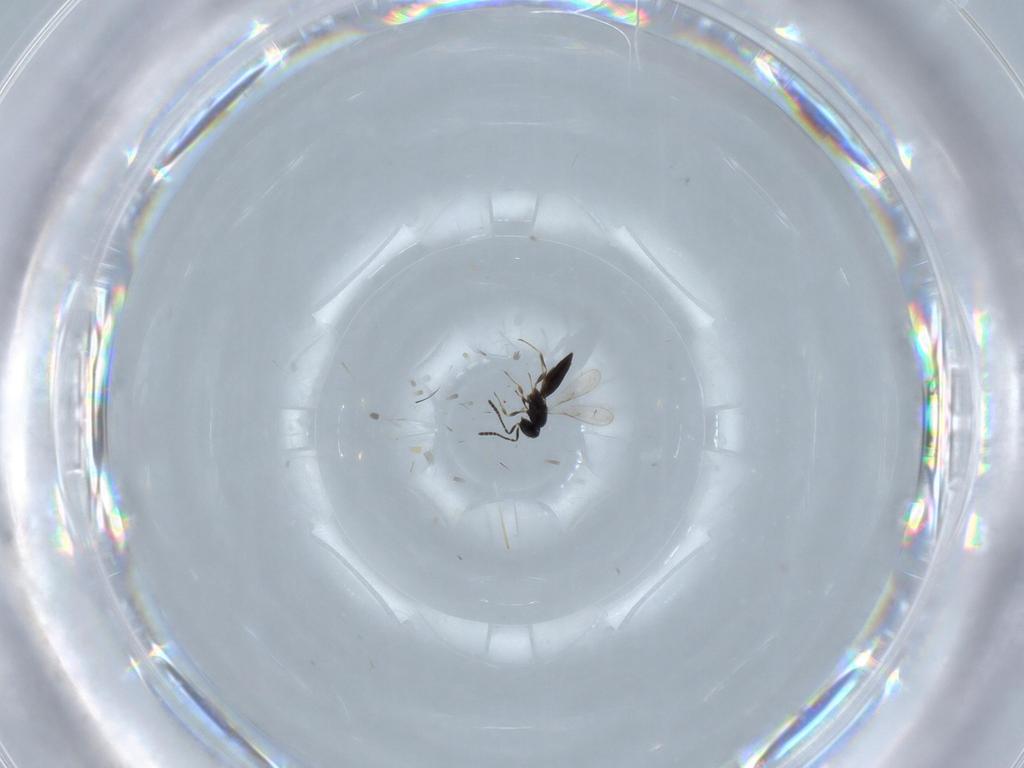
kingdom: Animalia
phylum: Arthropoda
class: Insecta
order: Hymenoptera
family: Scelionidae
